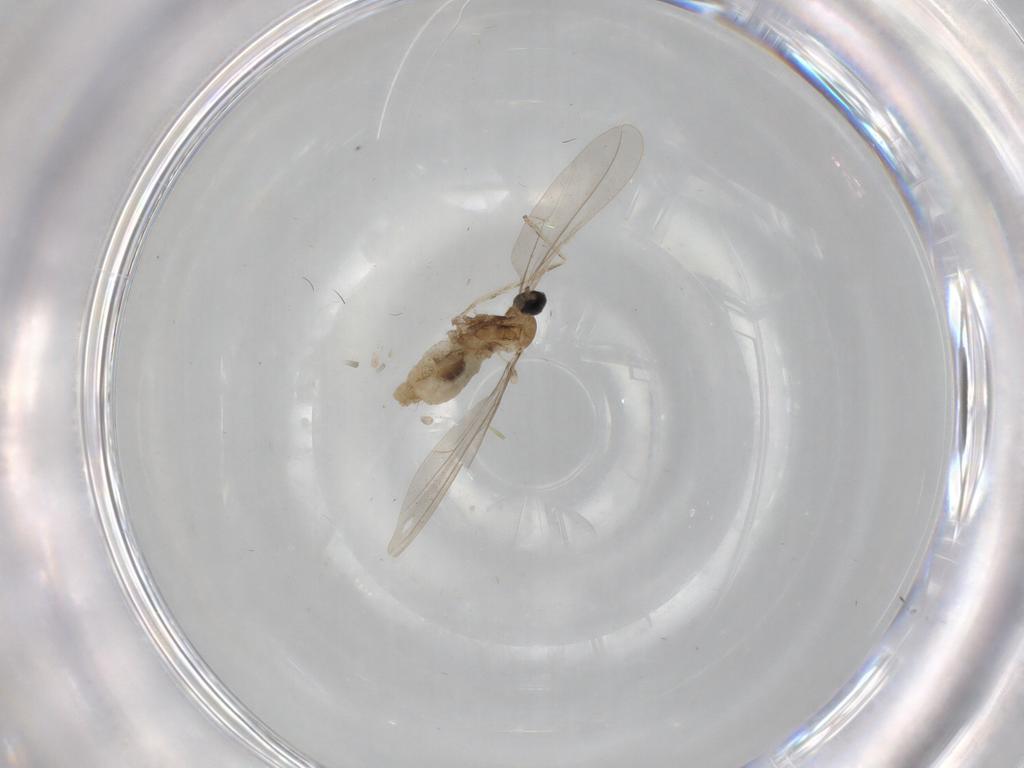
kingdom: Animalia
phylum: Arthropoda
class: Insecta
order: Diptera
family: Cecidomyiidae
